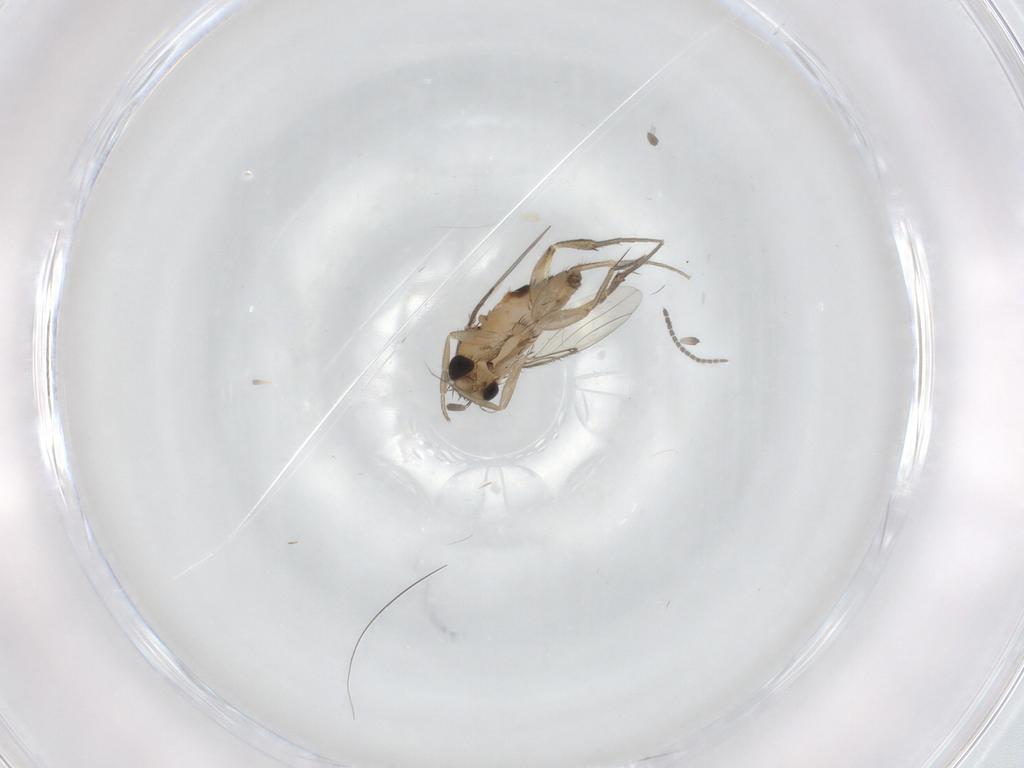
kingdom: Animalia
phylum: Arthropoda
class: Insecta
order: Diptera
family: Phoridae
